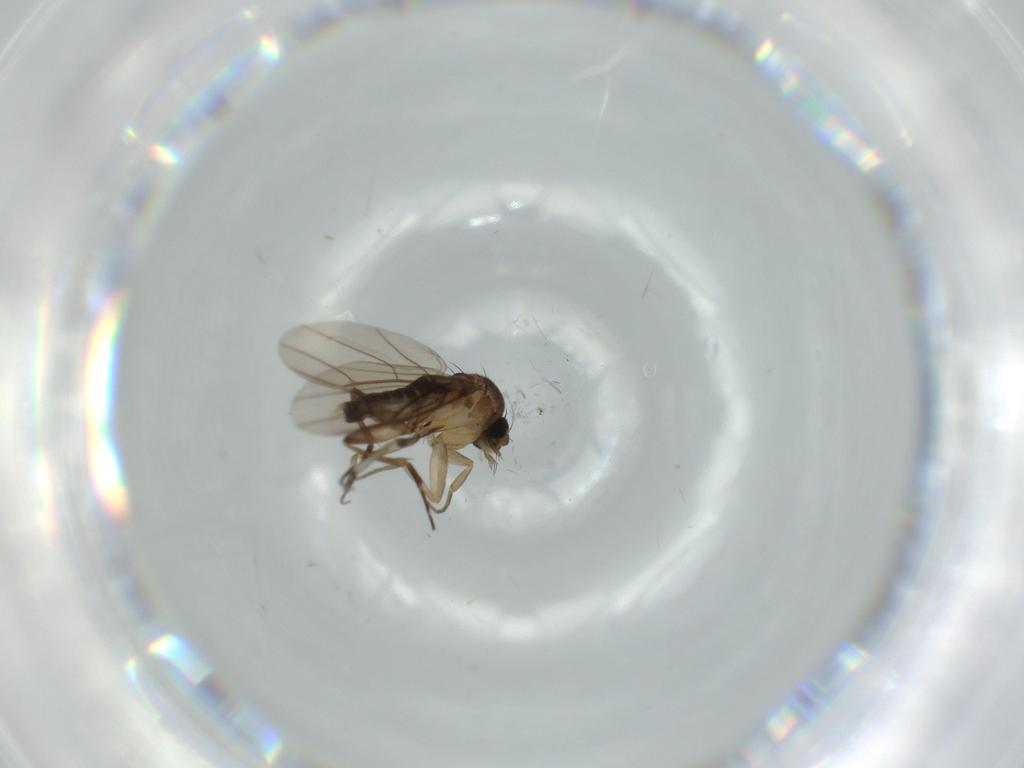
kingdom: Animalia
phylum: Arthropoda
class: Insecta
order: Diptera
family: Phoridae
